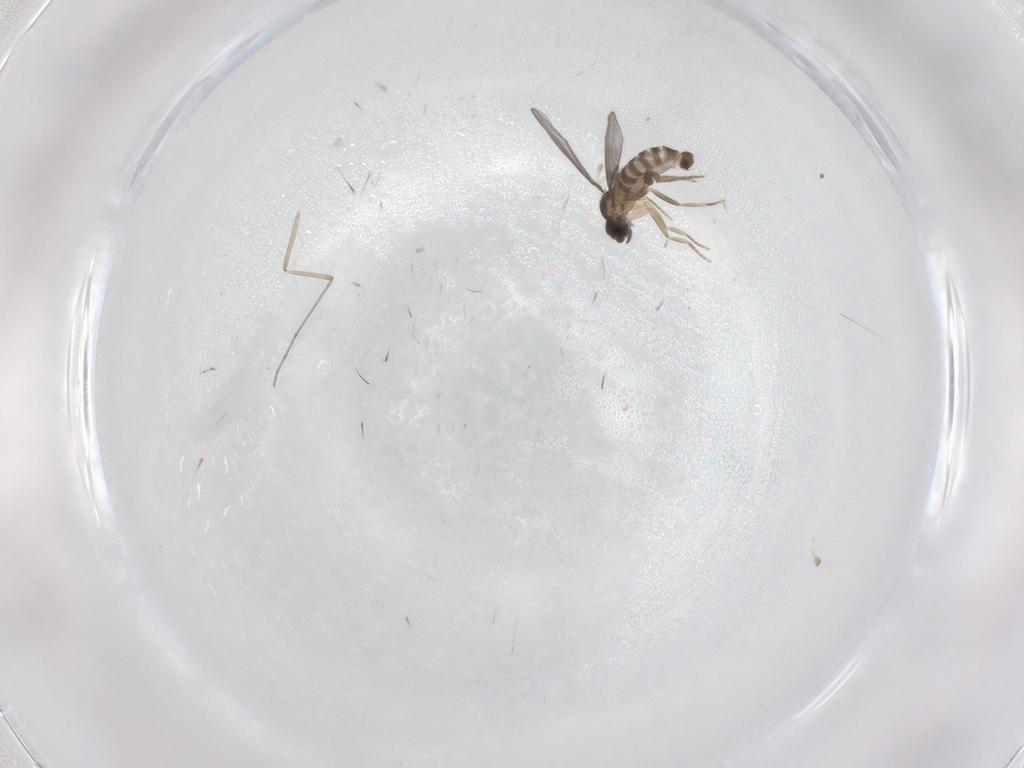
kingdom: Animalia
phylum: Arthropoda
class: Insecta
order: Diptera
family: Cecidomyiidae
